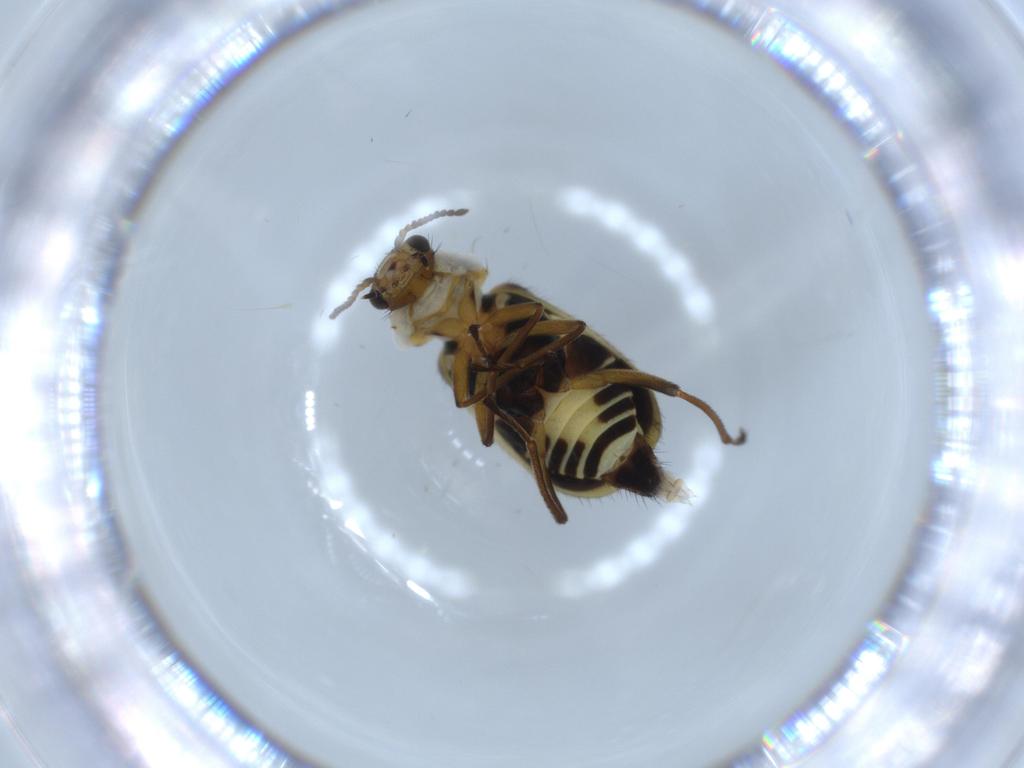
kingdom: Animalia
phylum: Arthropoda
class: Insecta
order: Coleoptera
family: Melyridae
